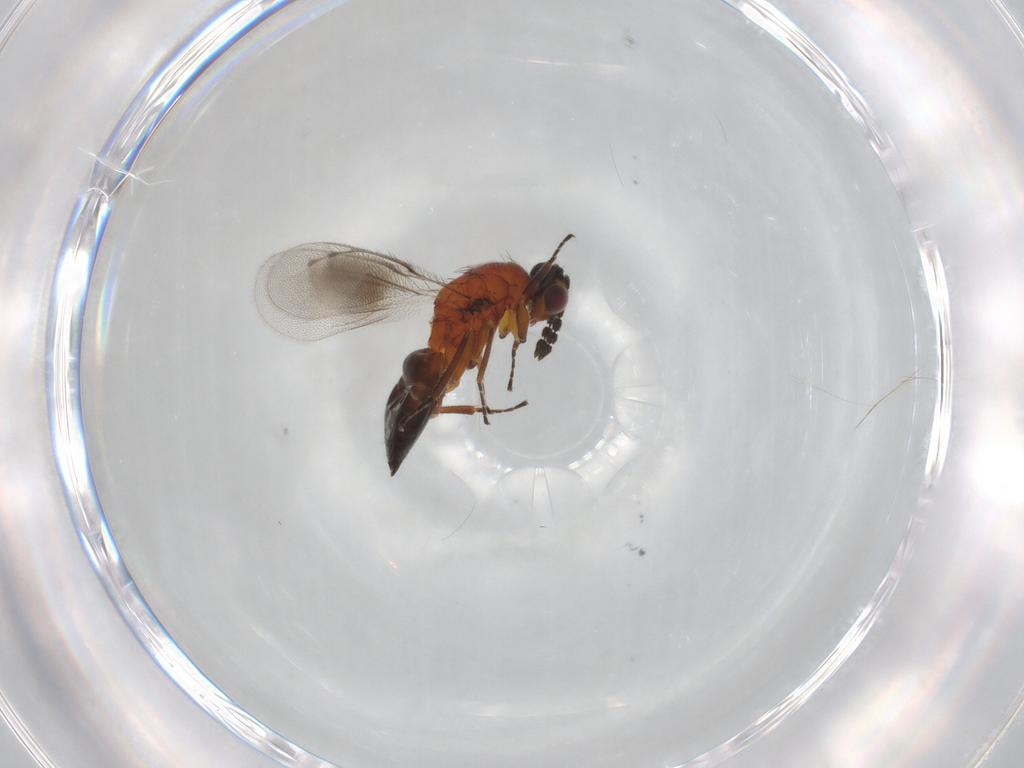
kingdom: Animalia
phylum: Arthropoda
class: Insecta
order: Hymenoptera
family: Eulophidae
